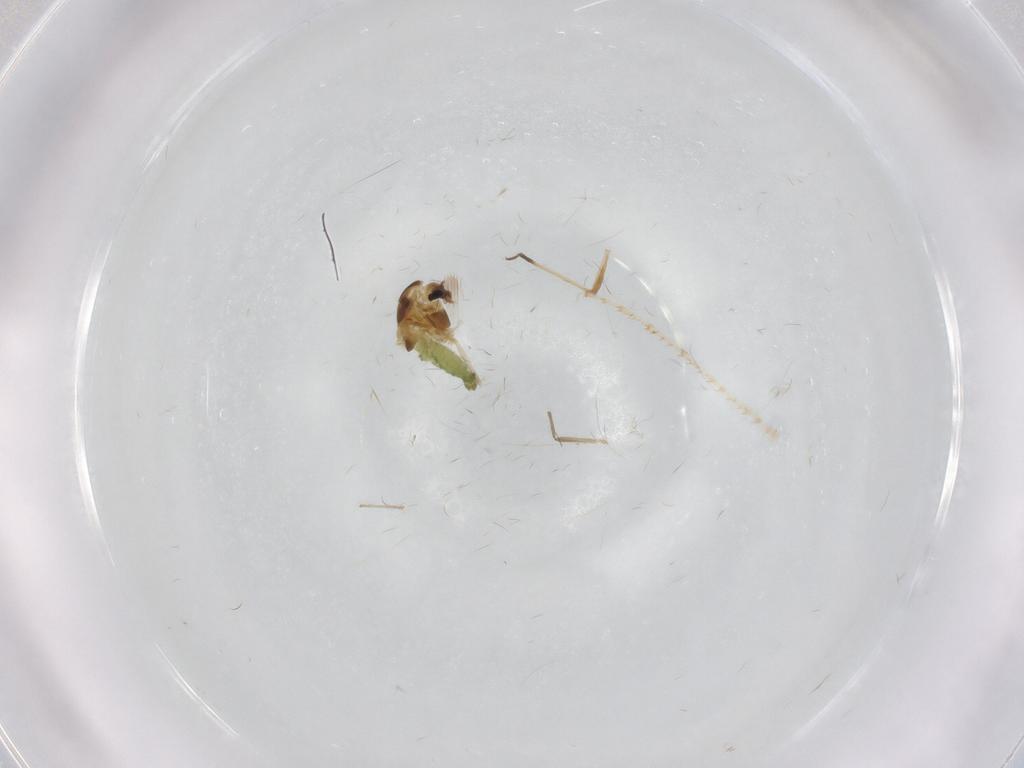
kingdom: Animalia
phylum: Arthropoda
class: Insecta
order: Diptera
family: Chironomidae
